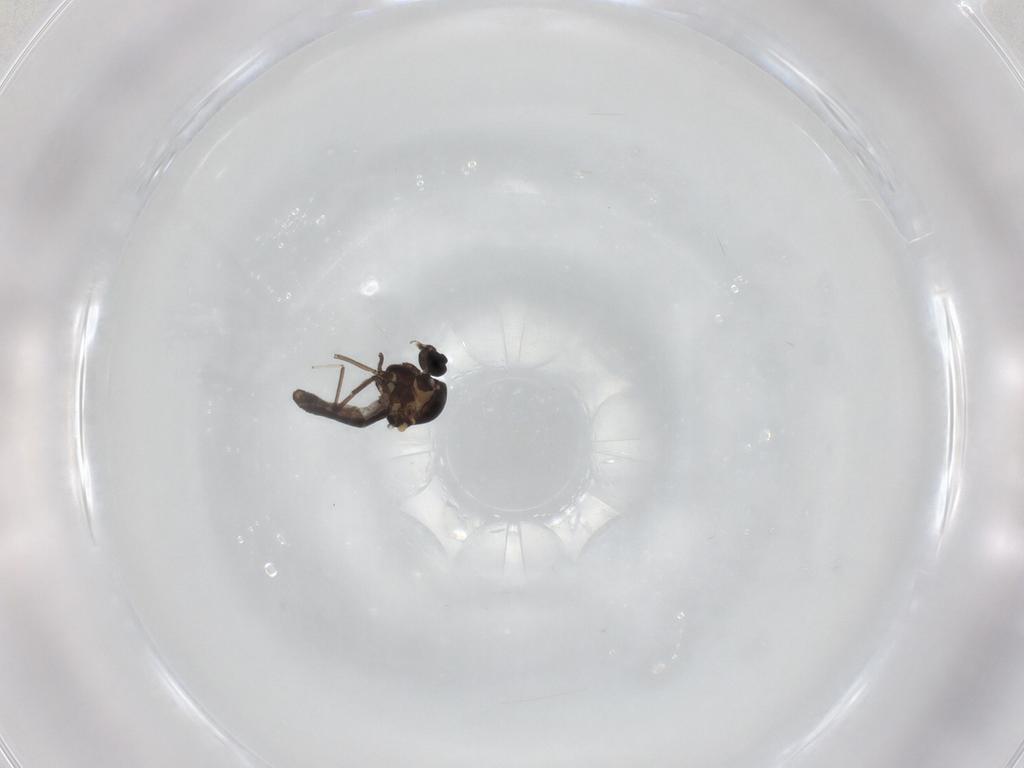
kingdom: Animalia
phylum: Arthropoda
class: Insecta
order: Diptera
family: Ceratopogonidae
